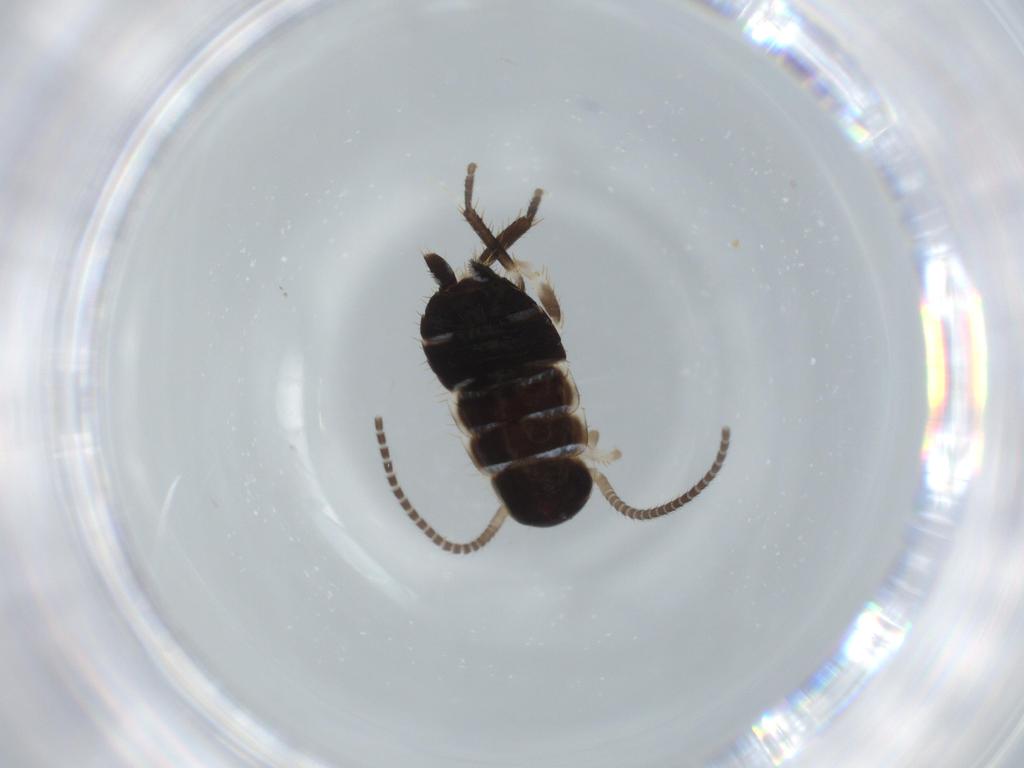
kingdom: Animalia
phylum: Arthropoda
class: Insecta
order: Blattodea
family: Ectobiidae
